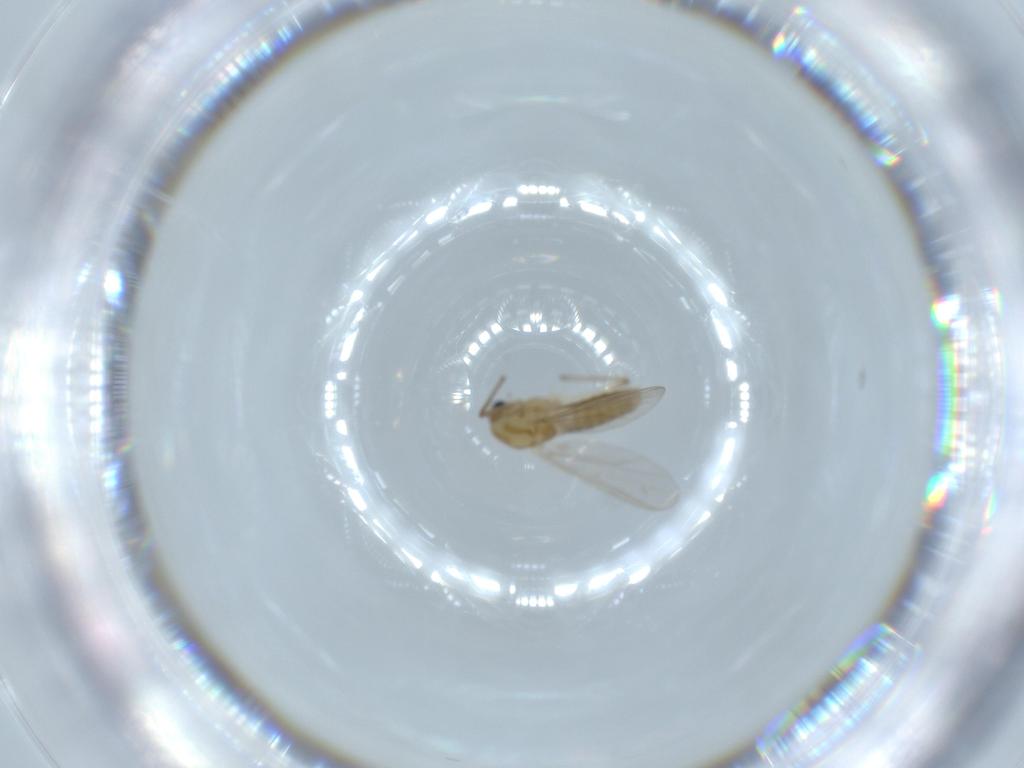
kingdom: Animalia
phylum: Arthropoda
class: Insecta
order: Diptera
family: Chironomidae
